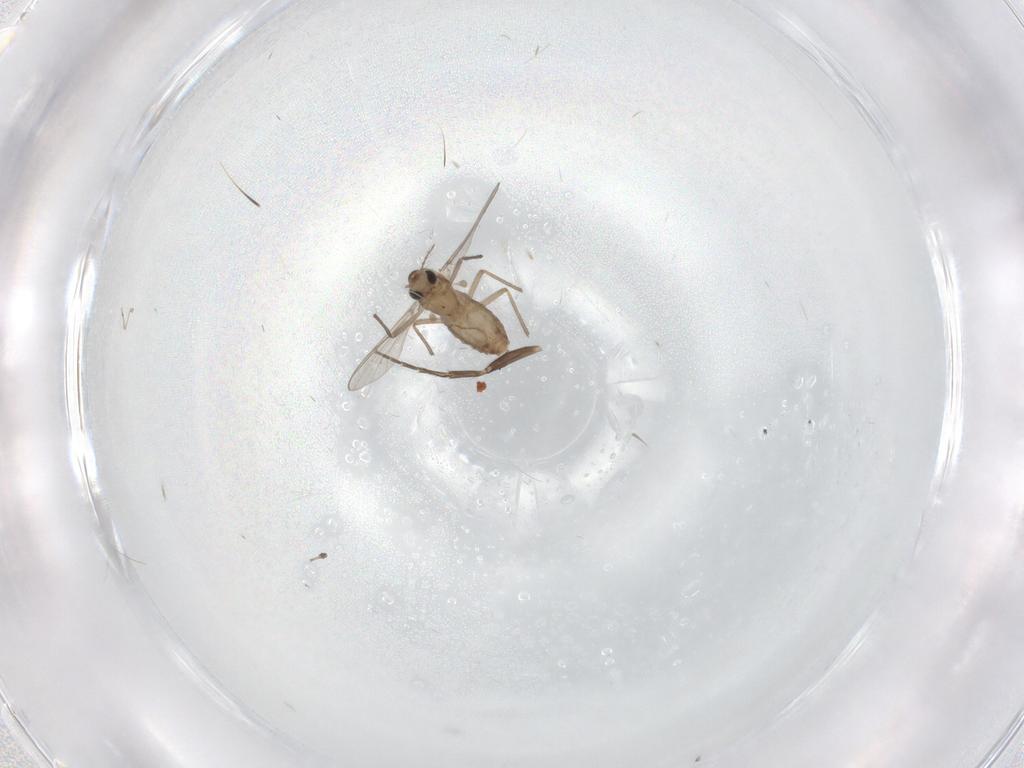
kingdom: Animalia
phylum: Arthropoda
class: Insecta
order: Diptera
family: Chironomidae
